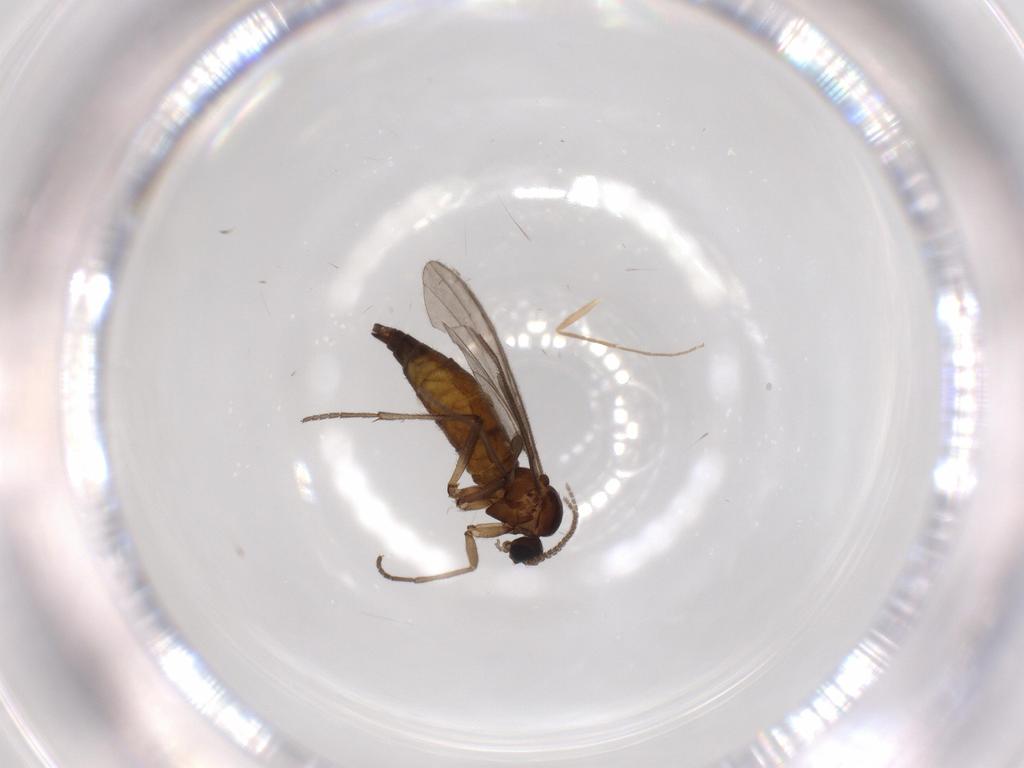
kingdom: Animalia
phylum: Arthropoda
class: Insecta
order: Diptera
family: Sciaridae
